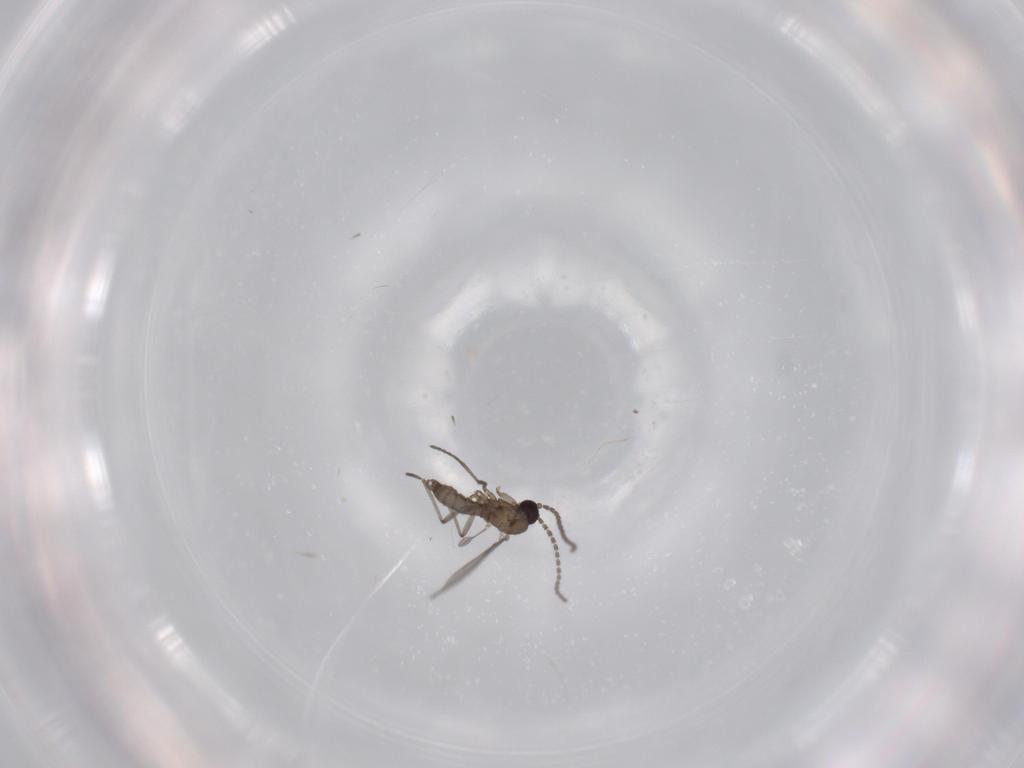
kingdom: Animalia
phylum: Arthropoda
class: Insecta
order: Diptera
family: Sciaridae
